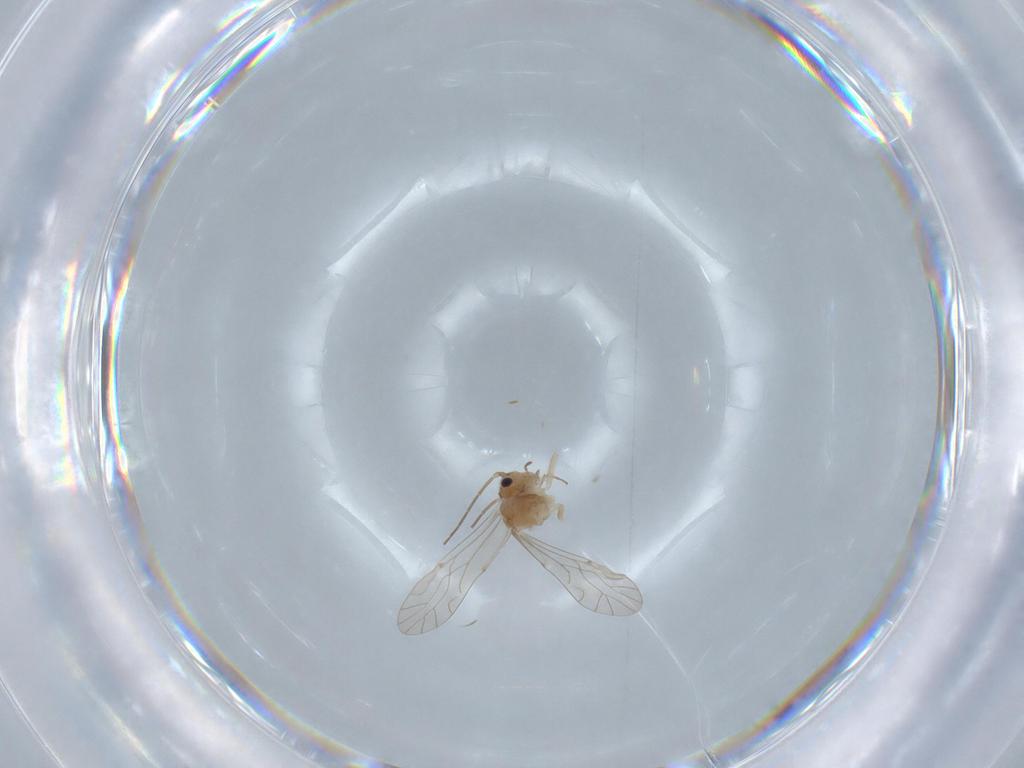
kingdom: Animalia
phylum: Arthropoda
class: Insecta
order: Psocodea
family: Lachesillidae
